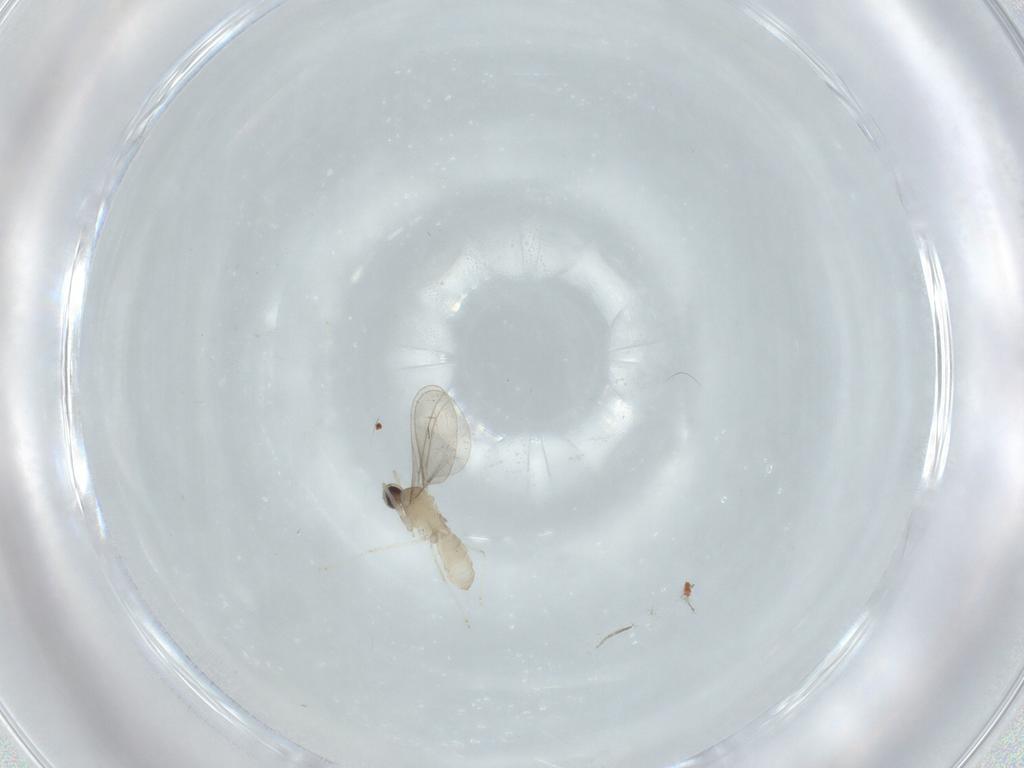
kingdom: Animalia
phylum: Arthropoda
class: Insecta
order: Diptera
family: Chironomidae
